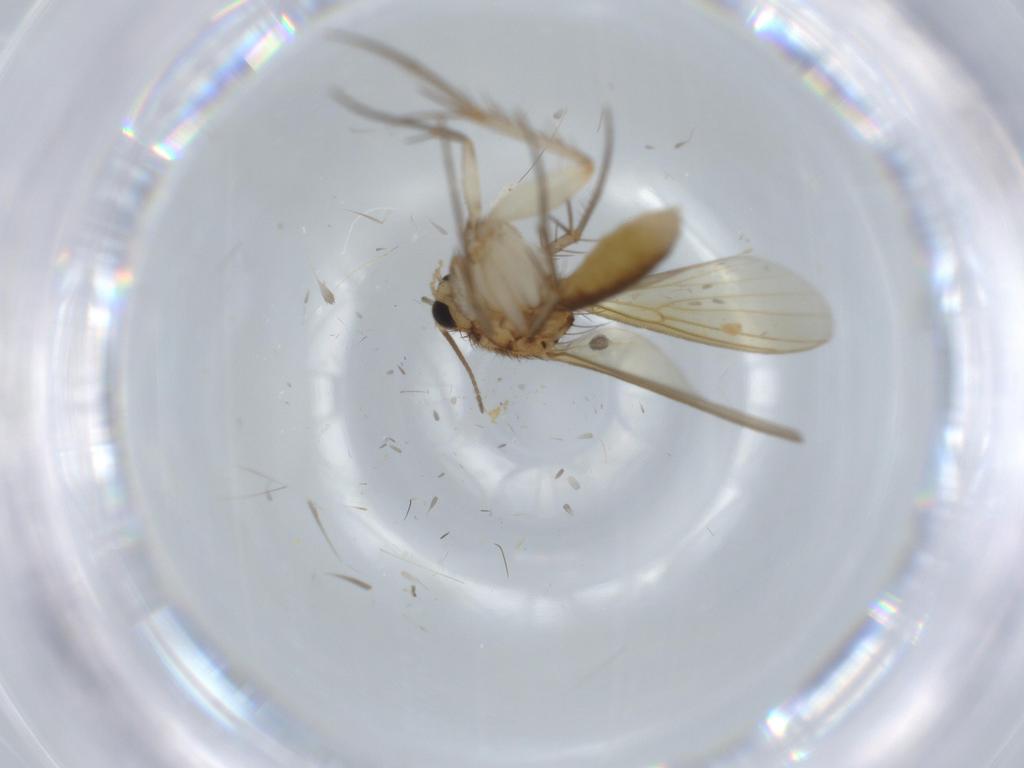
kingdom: Animalia
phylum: Arthropoda
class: Insecta
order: Diptera
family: Mycetophilidae
